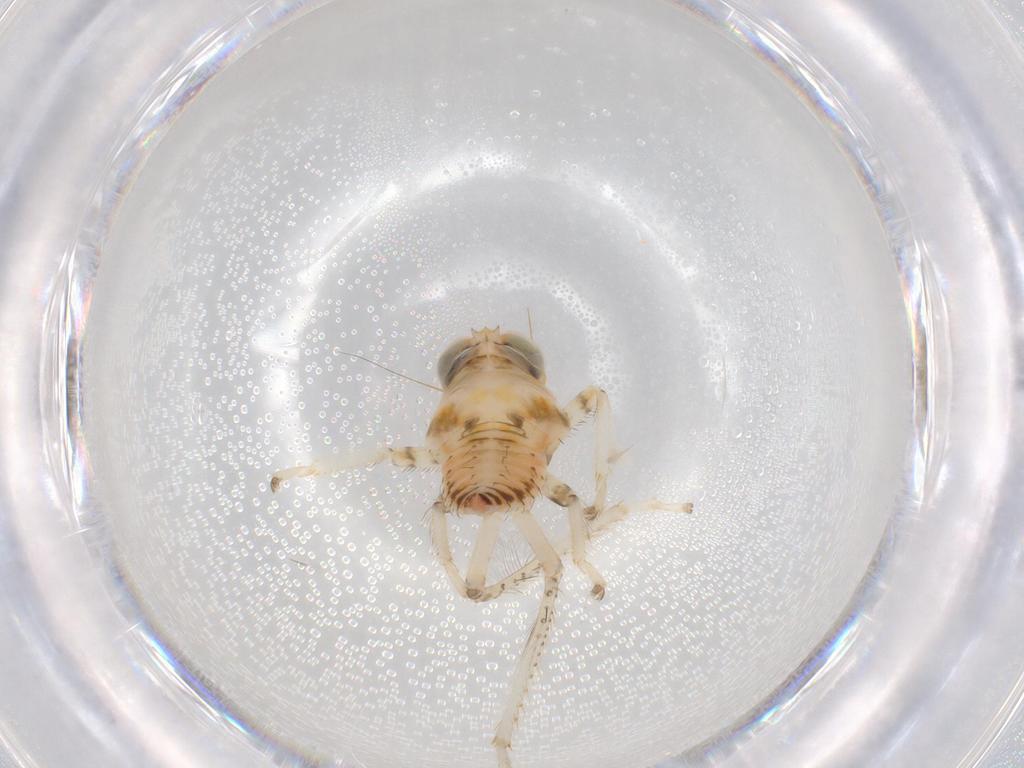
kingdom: Animalia
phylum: Arthropoda
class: Insecta
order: Hemiptera
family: Cicadellidae
